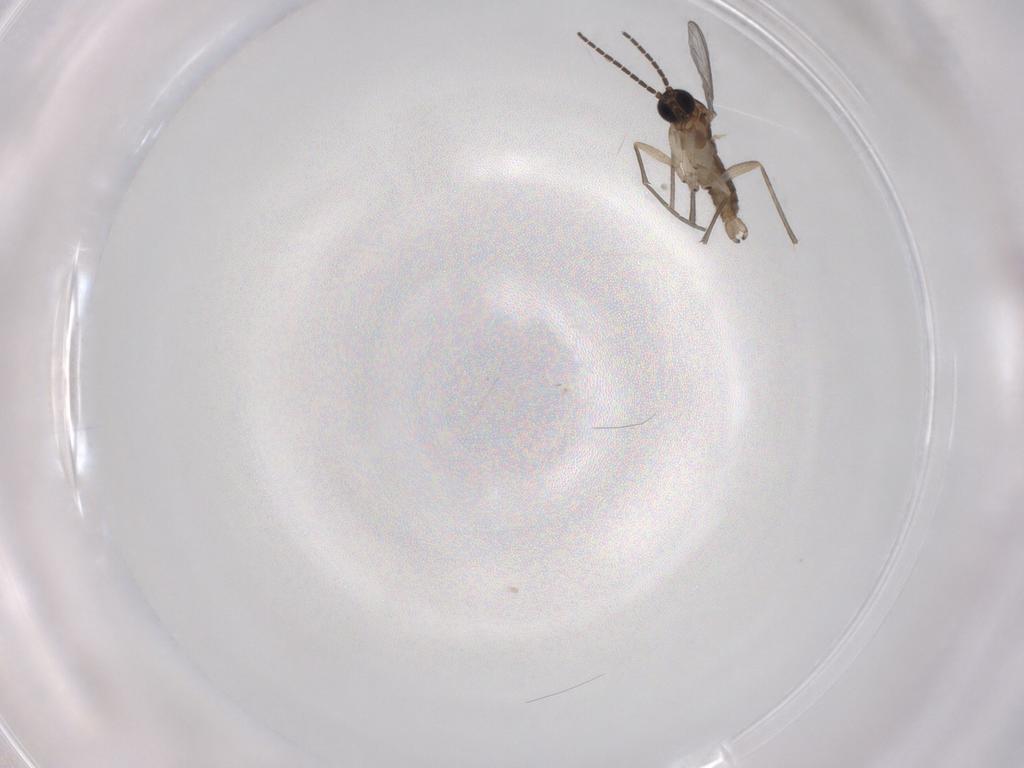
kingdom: Animalia
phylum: Arthropoda
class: Insecta
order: Diptera
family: Sciaridae
